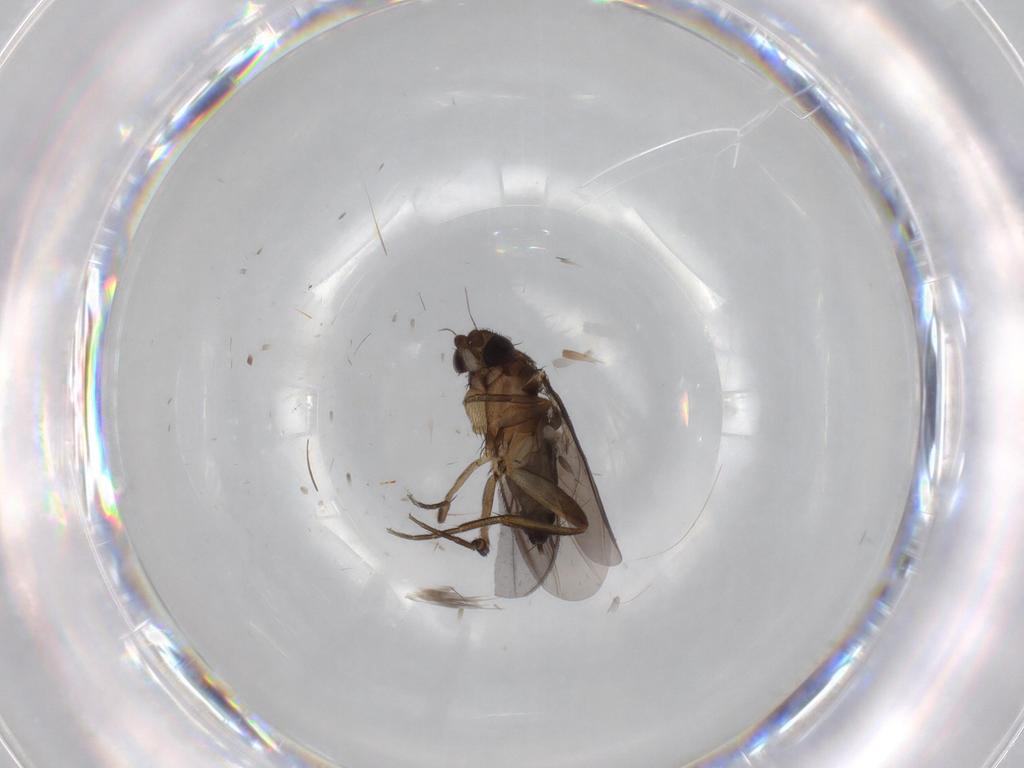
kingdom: Animalia
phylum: Arthropoda
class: Insecta
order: Diptera
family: Phoridae
